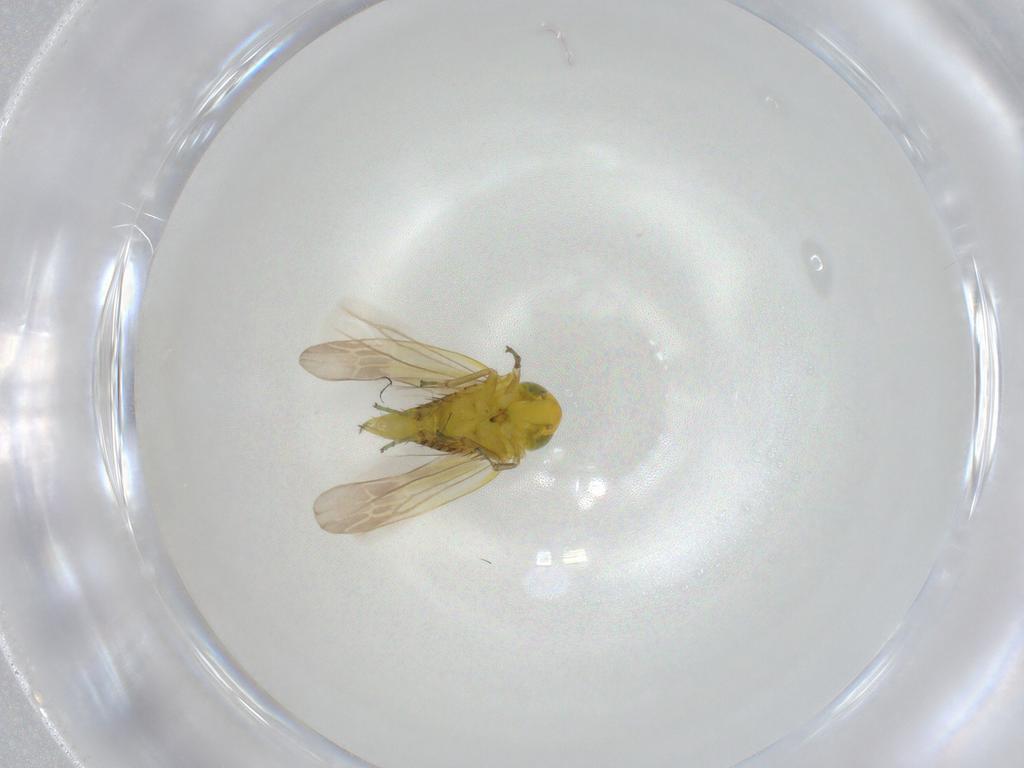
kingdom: Animalia
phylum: Arthropoda
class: Insecta
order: Hemiptera
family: Cicadellidae
